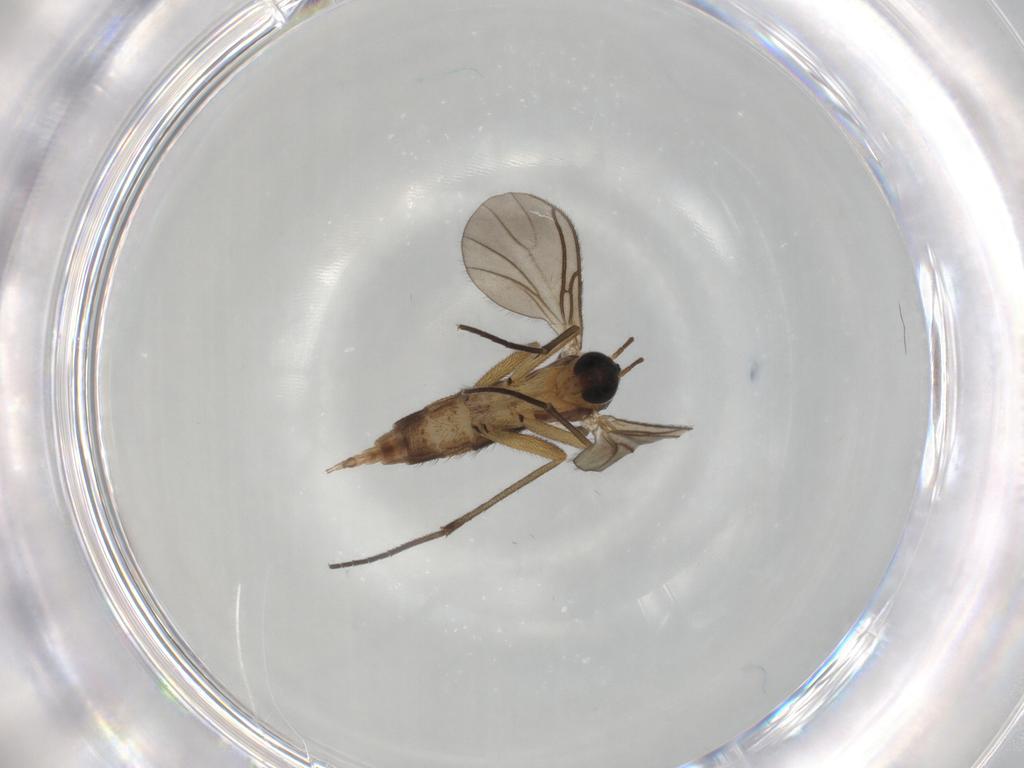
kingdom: Animalia
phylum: Arthropoda
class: Insecta
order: Diptera
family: Sciaridae
